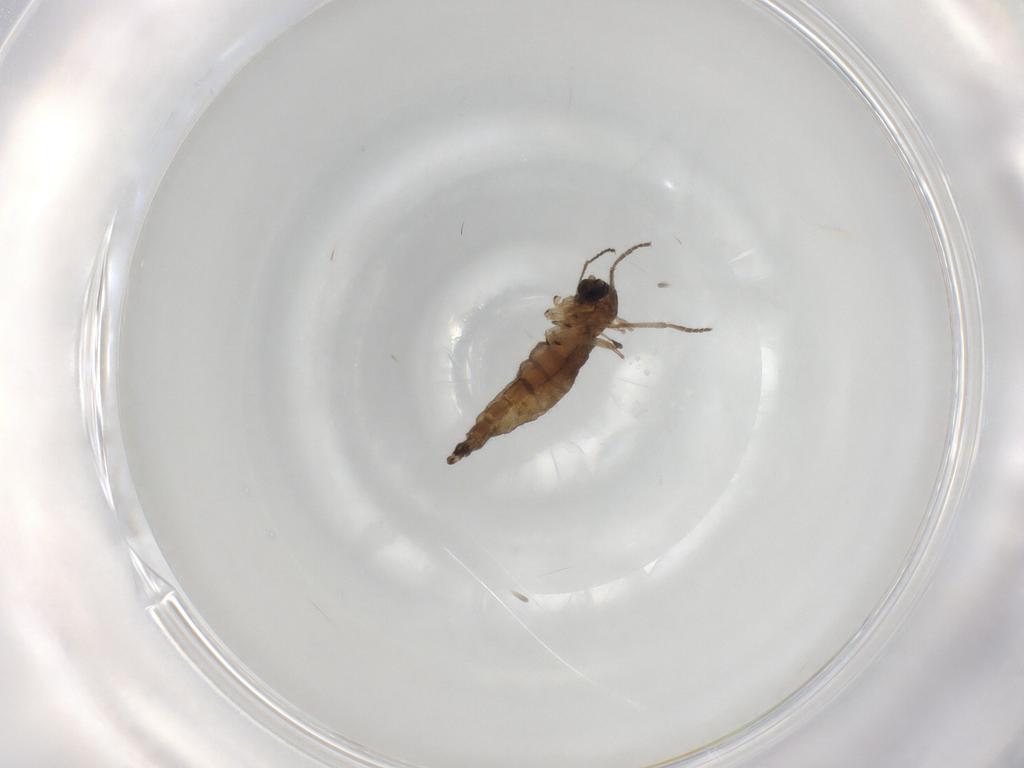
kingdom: Animalia
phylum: Arthropoda
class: Insecta
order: Diptera
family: Sciaridae
